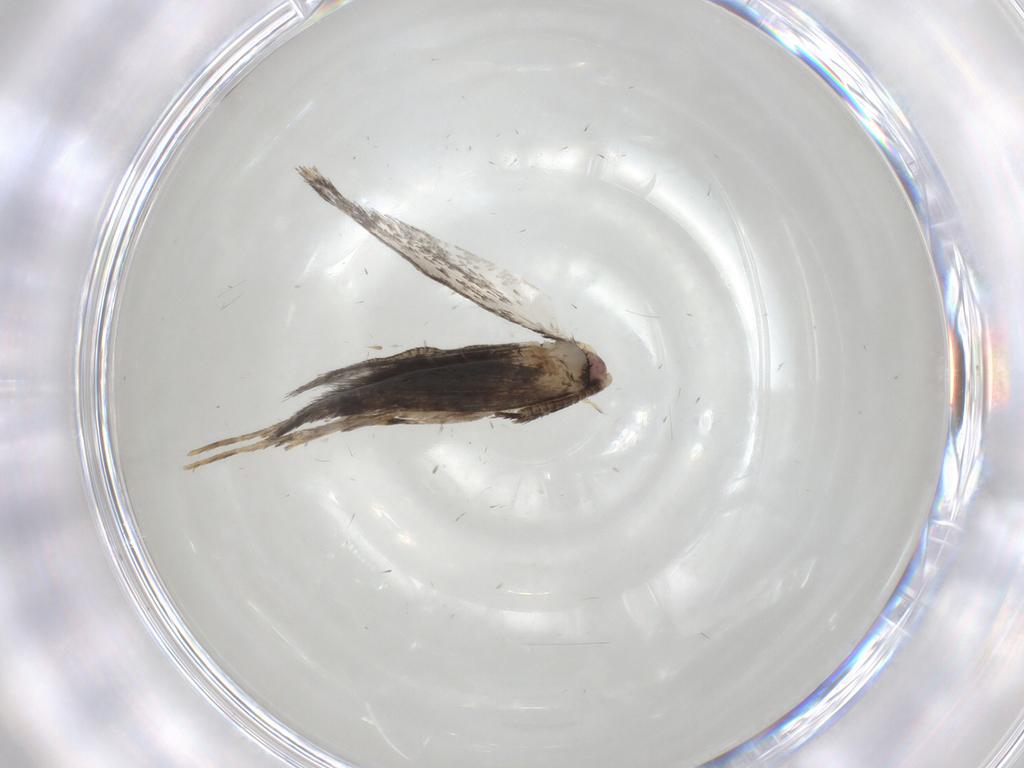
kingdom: Animalia
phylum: Arthropoda
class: Insecta
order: Lepidoptera
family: Tineidae
